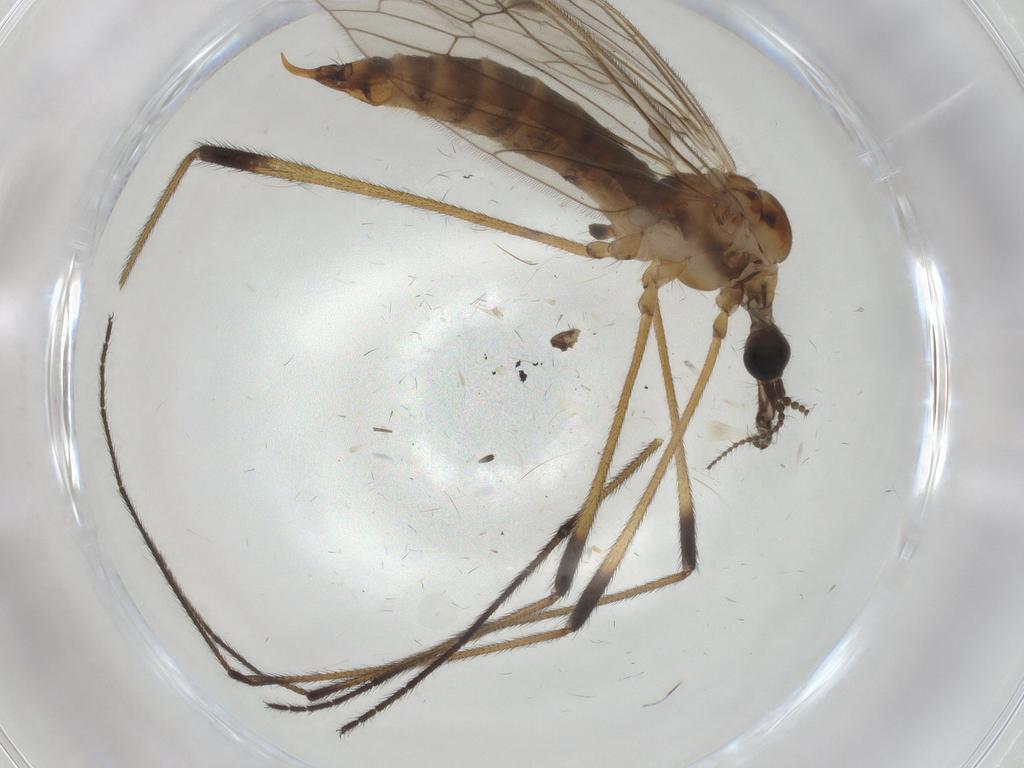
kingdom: Animalia
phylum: Arthropoda
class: Insecta
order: Diptera
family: Limoniidae
